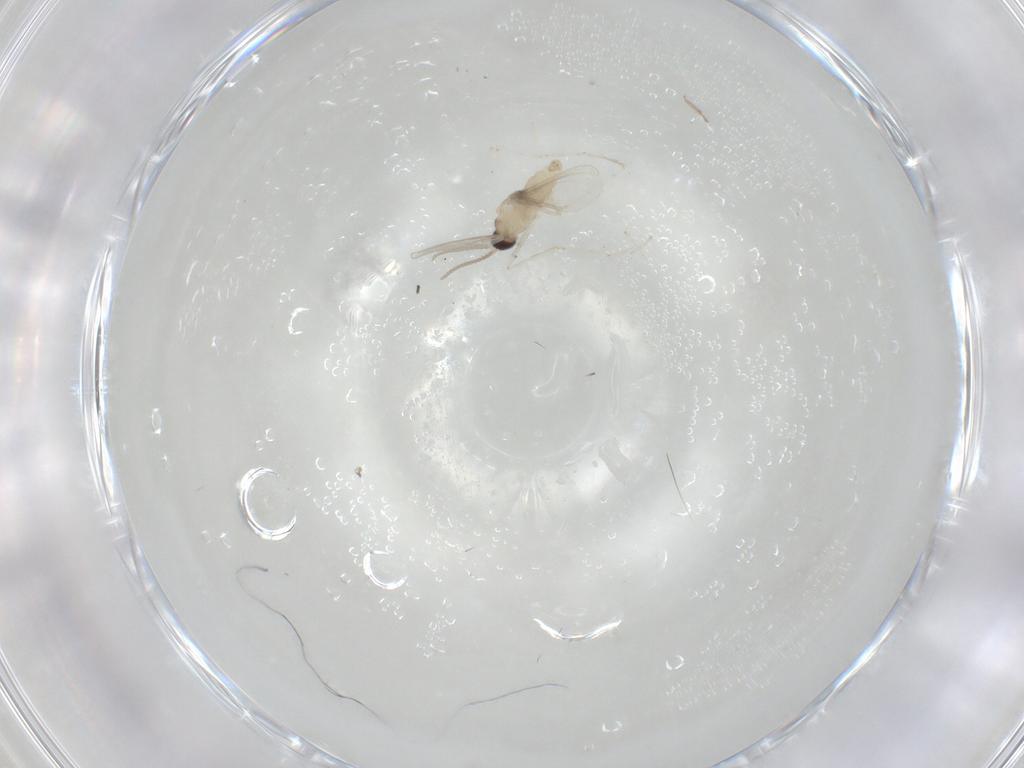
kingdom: Animalia
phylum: Arthropoda
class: Insecta
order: Diptera
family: Cecidomyiidae
